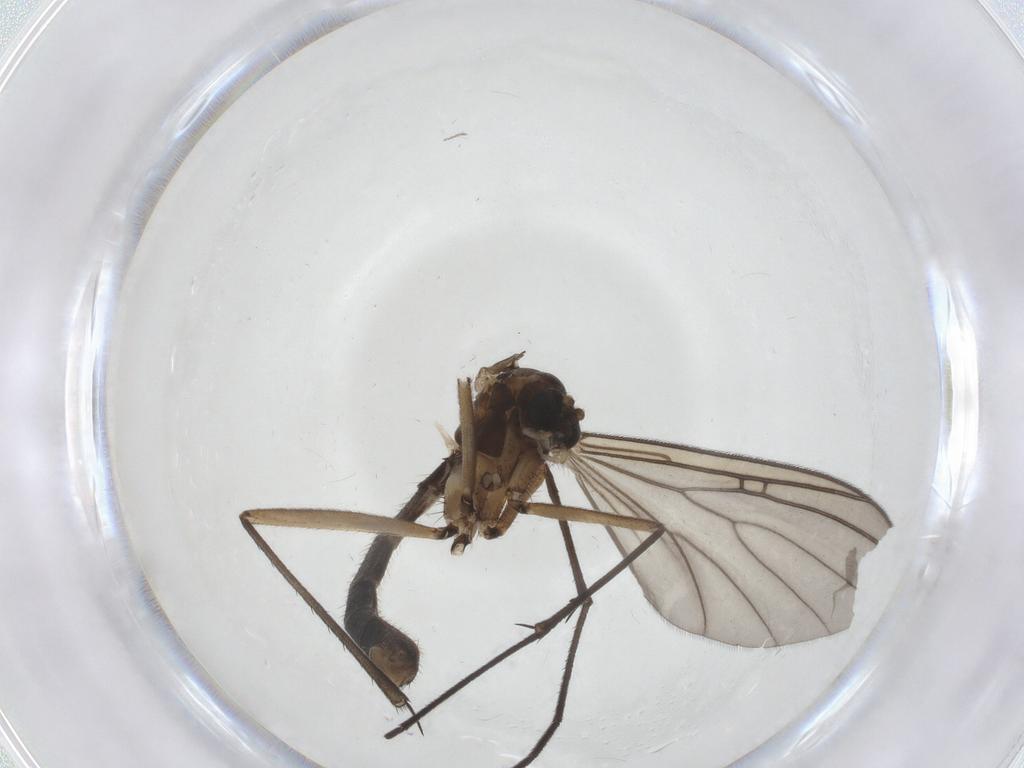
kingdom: Animalia
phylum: Arthropoda
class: Insecta
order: Diptera
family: Mycetophilidae
